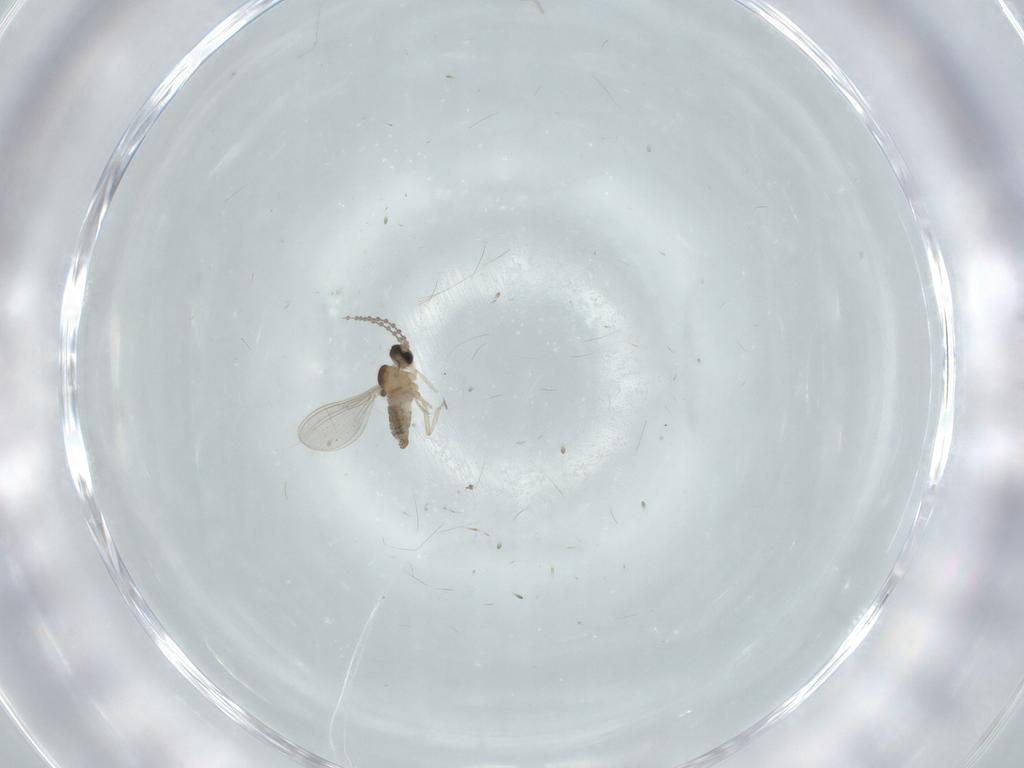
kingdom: Animalia
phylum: Arthropoda
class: Insecta
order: Diptera
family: Cecidomyiidae
